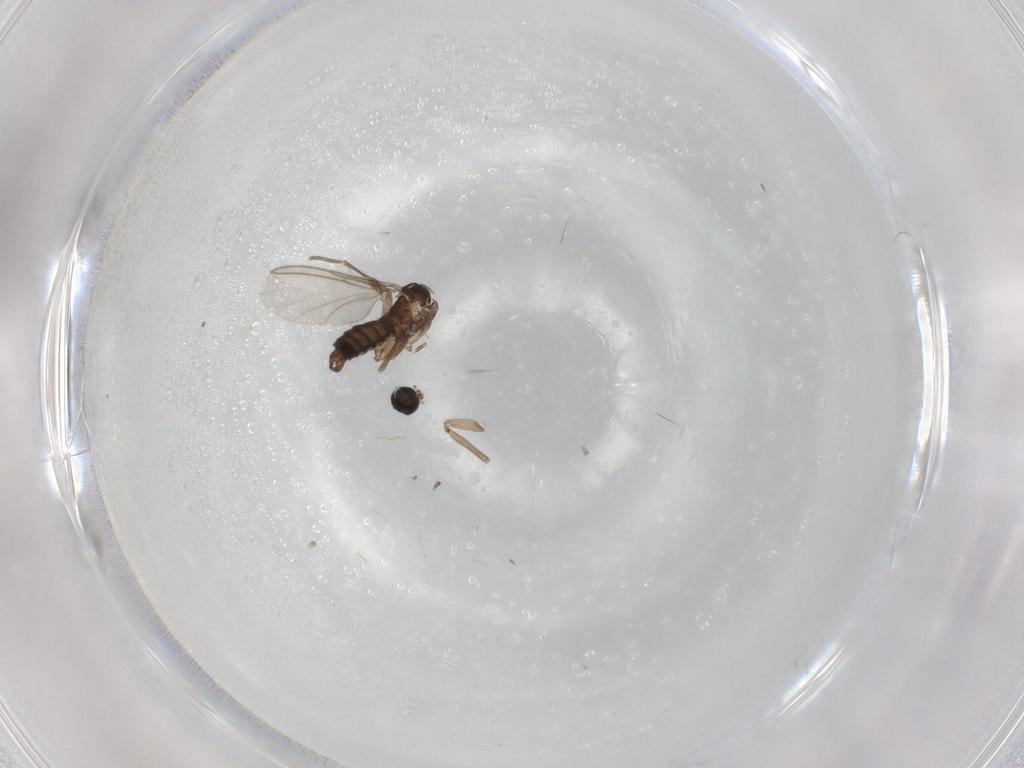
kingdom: Animalia
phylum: Arthropoda
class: Insecta
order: Diptera
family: Sciaridae
